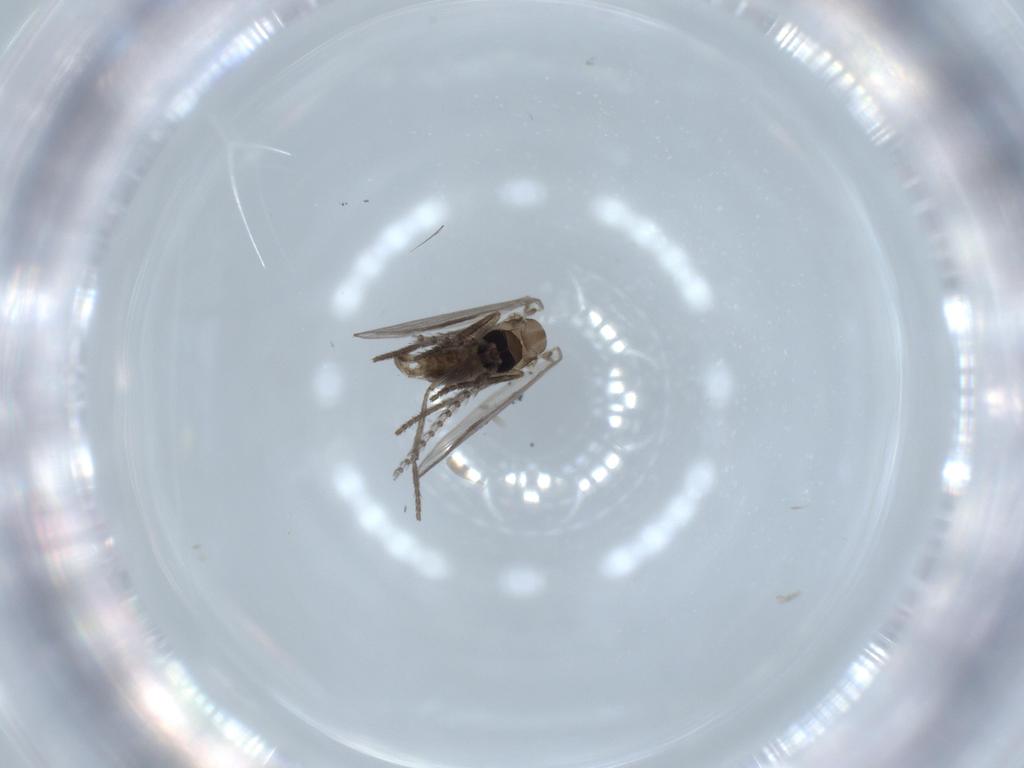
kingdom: Animalia
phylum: Arthropoda
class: Insecta
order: Diptera
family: Psychodidae
